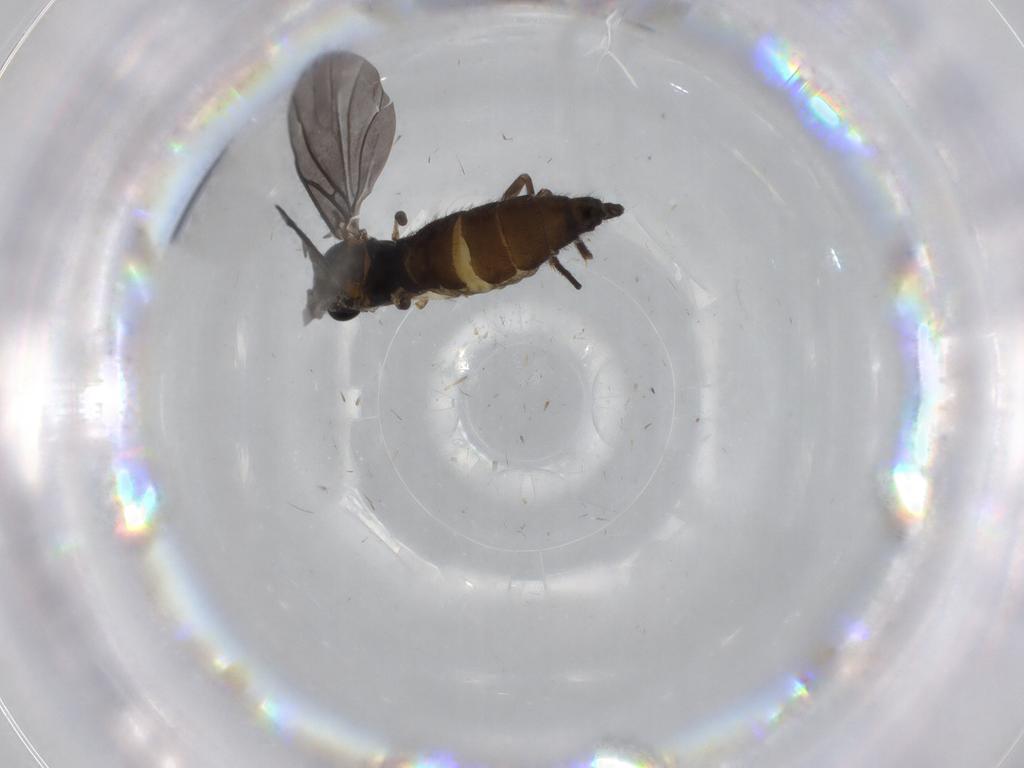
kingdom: Animalia
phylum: Arthropoda
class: Insecta
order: Diptera
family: Sciaridae
